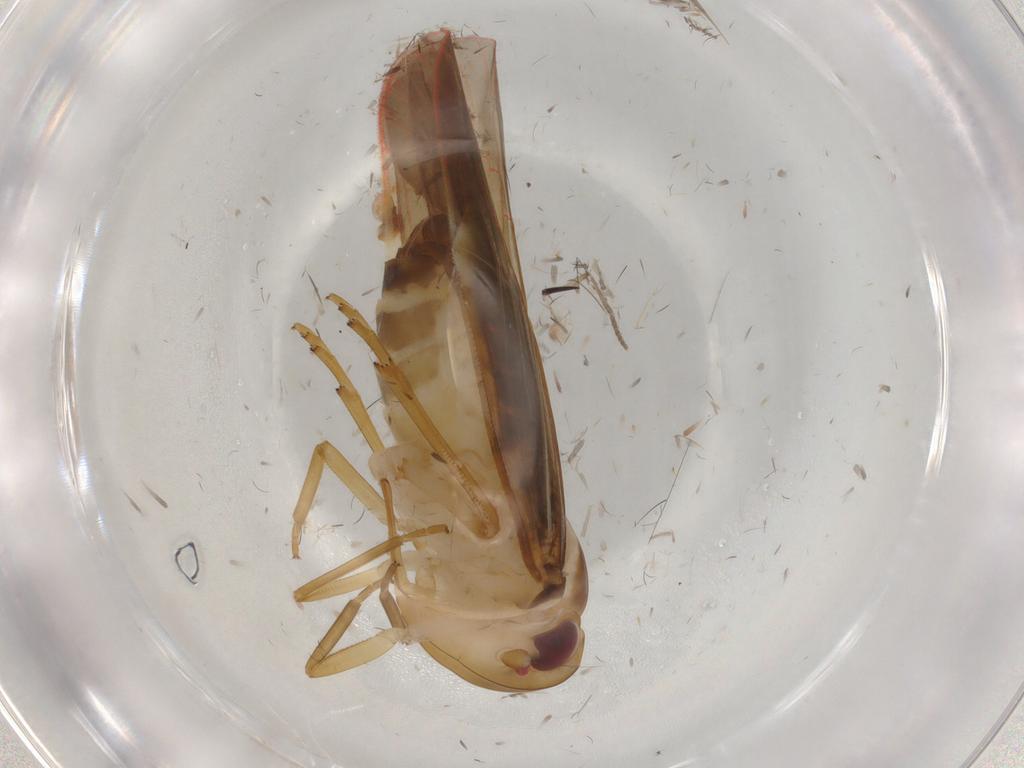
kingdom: Animalia
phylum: Arthropoda
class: Insecta
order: Hemiptera
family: Achilidae
